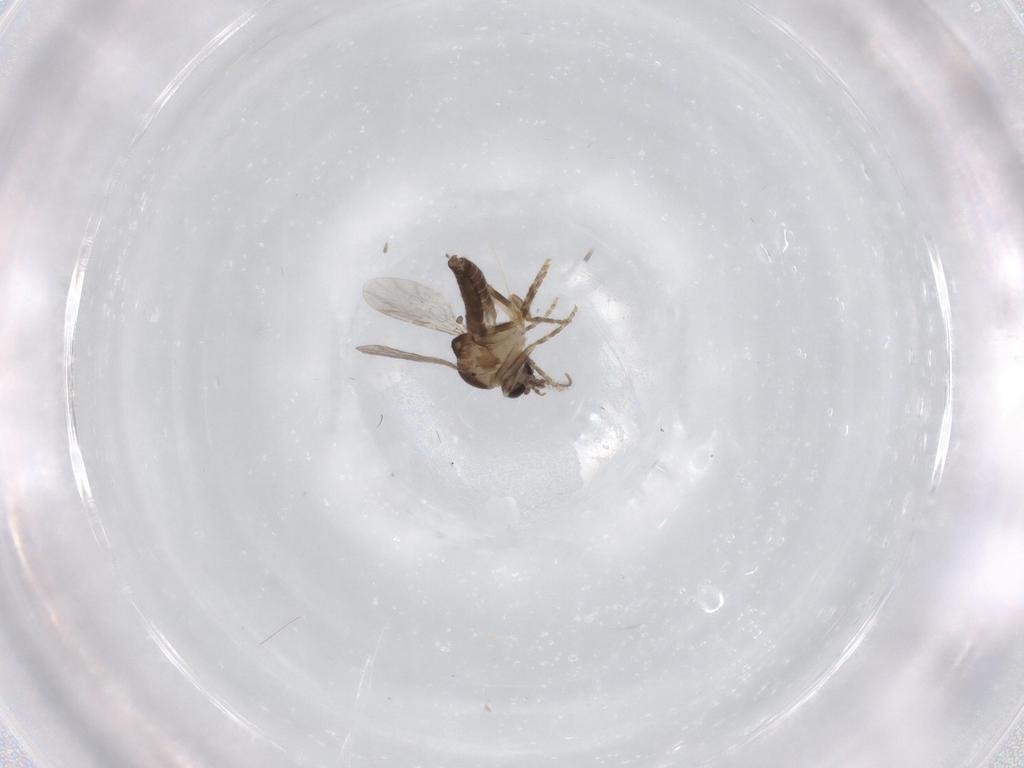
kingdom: Animalia
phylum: Arthropoda
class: Insecta
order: Diptera
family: Ceratopogonidae
